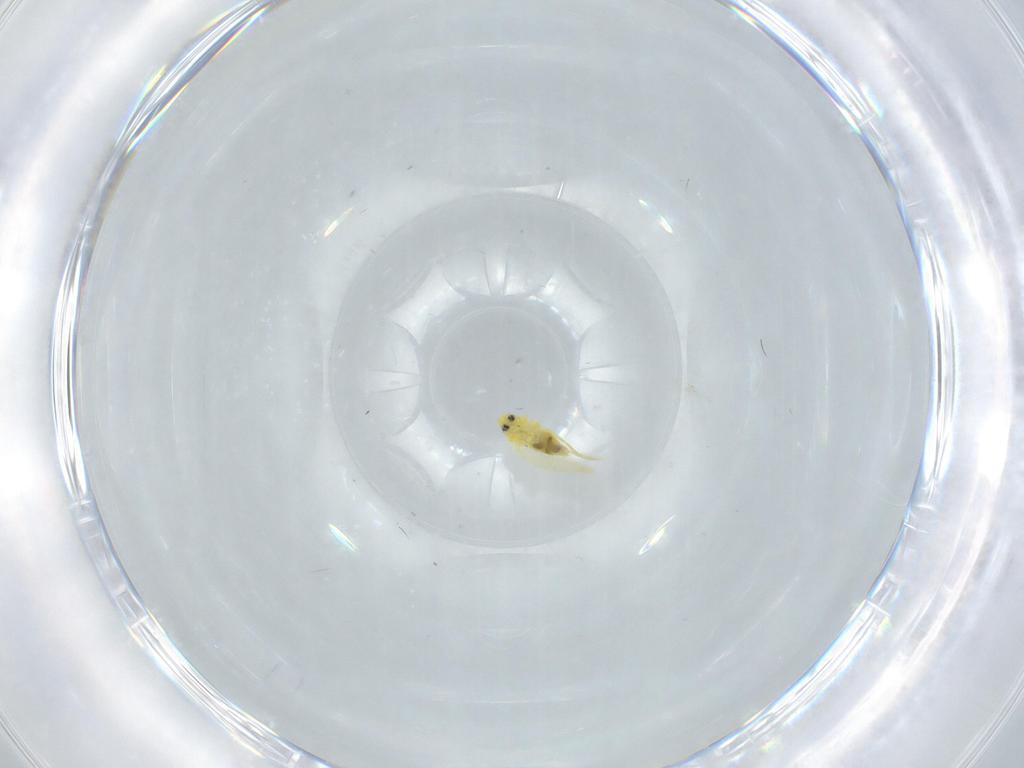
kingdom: Animalia
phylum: Arthropoda
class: Insecta
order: Hemiptera
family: Aleyrodidae
